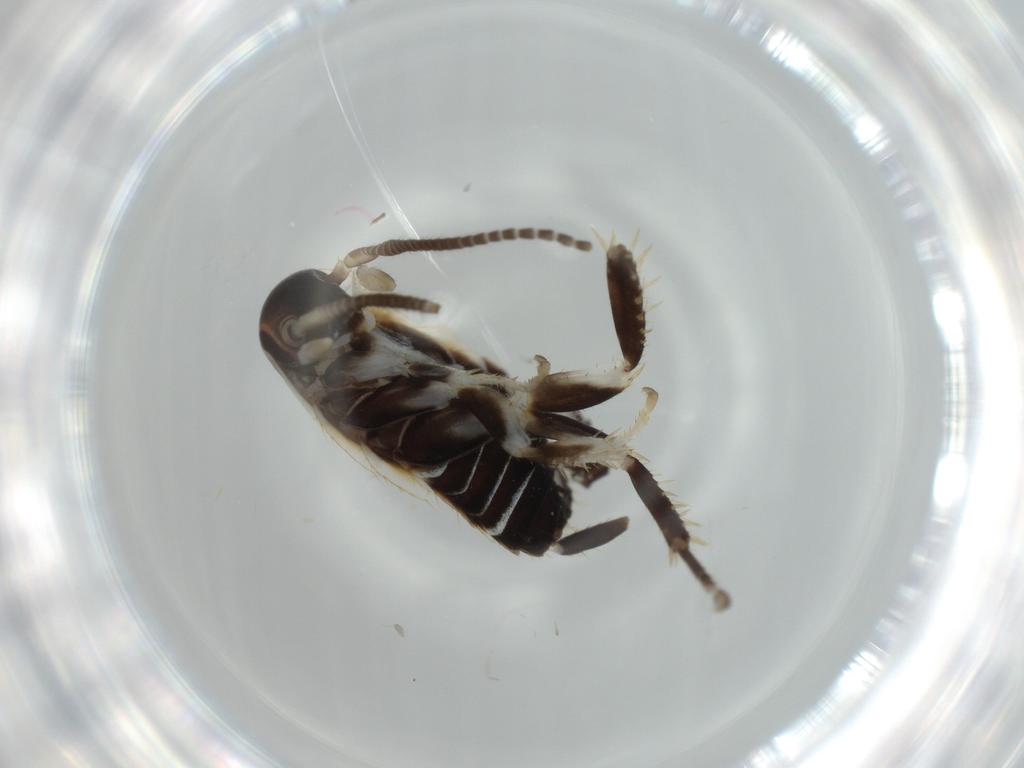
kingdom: Animalia
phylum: Arthropoda
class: Insecta
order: Blattodea
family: Ectobiidae
